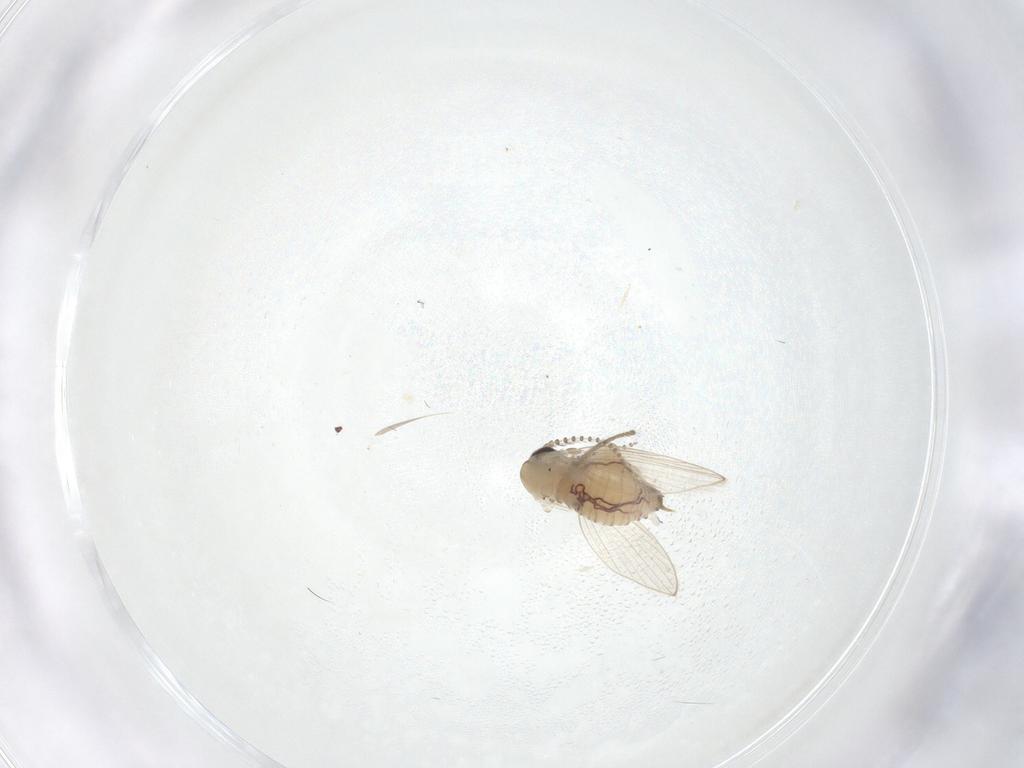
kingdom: Animalia
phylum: Arthropoda
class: Insecta
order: Diptera
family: Psychodidae
